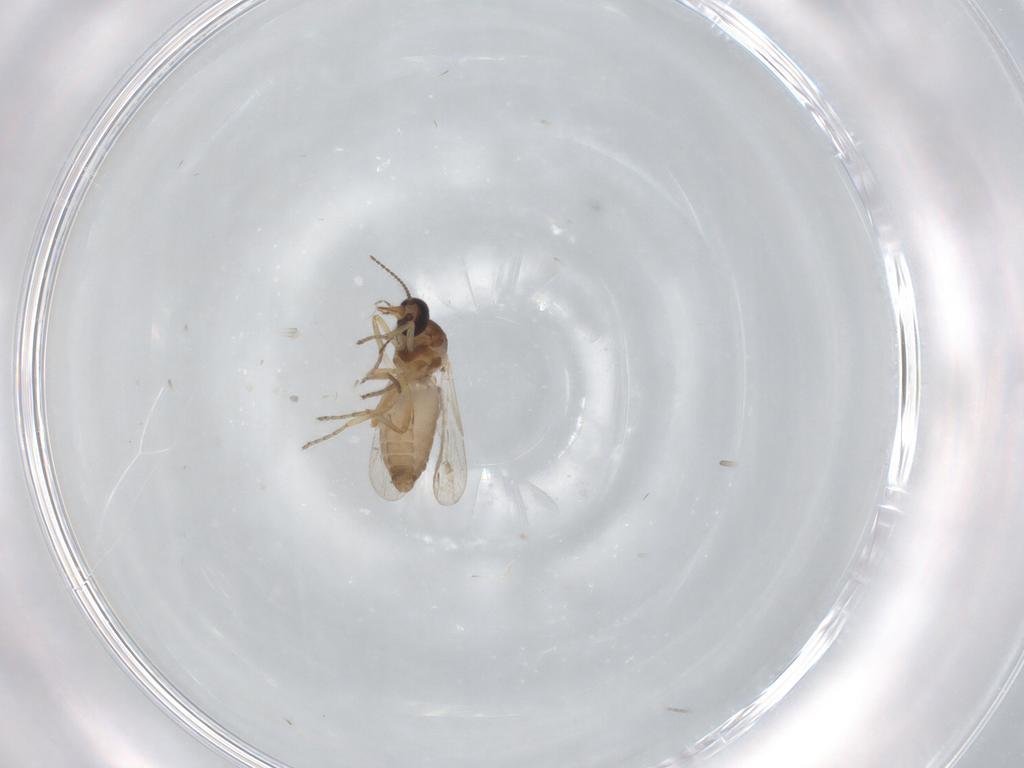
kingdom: Animalia
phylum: Arthropoda
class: Insecta
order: Diptera
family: Ceratopogonidae
